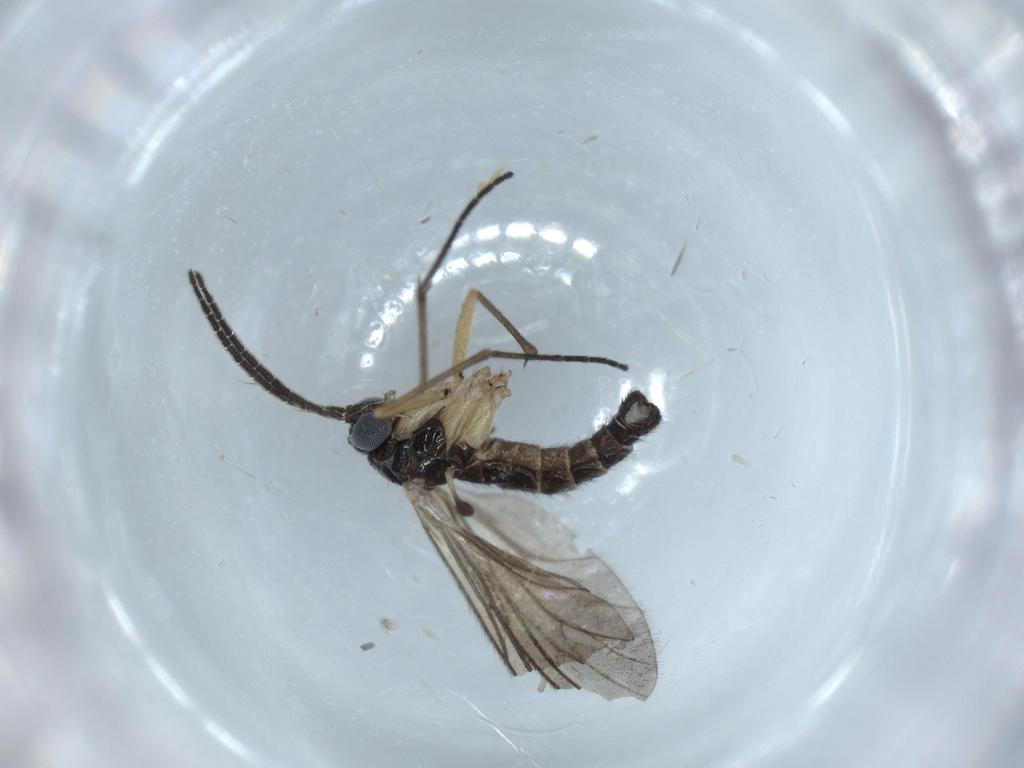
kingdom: Animalia
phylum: Arthropoda
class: Insecta
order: Diptera
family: Sciaridae
